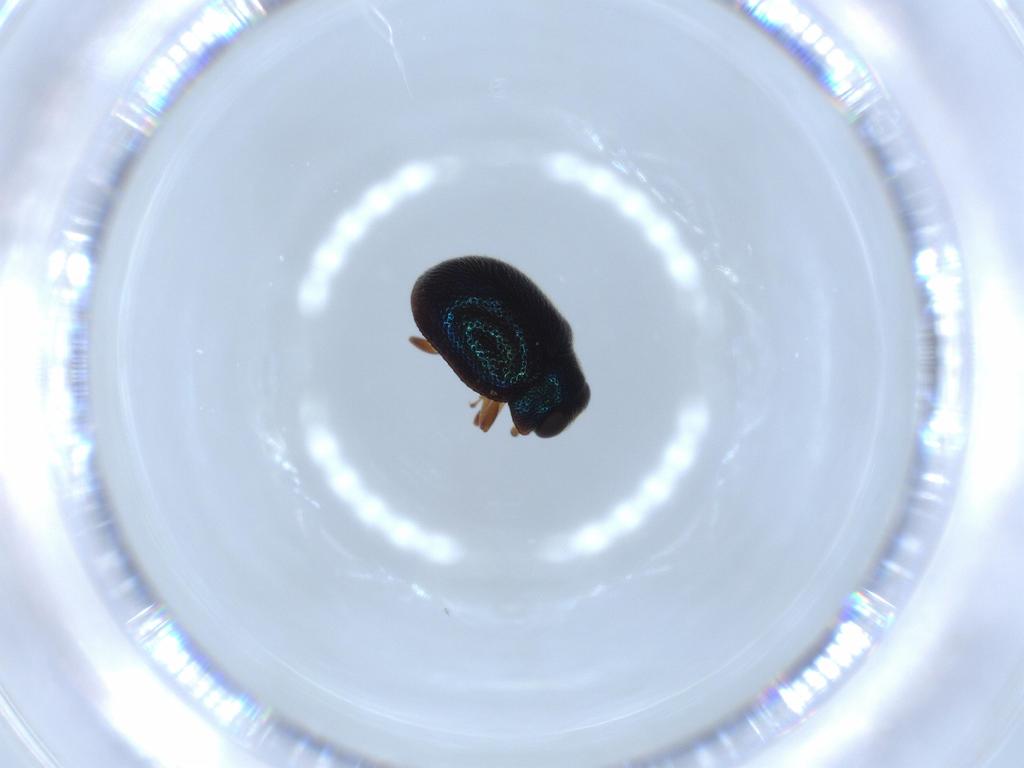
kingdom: Animalia
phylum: Arthropoda
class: Insecta
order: Coleoptera
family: Coccinellidae
